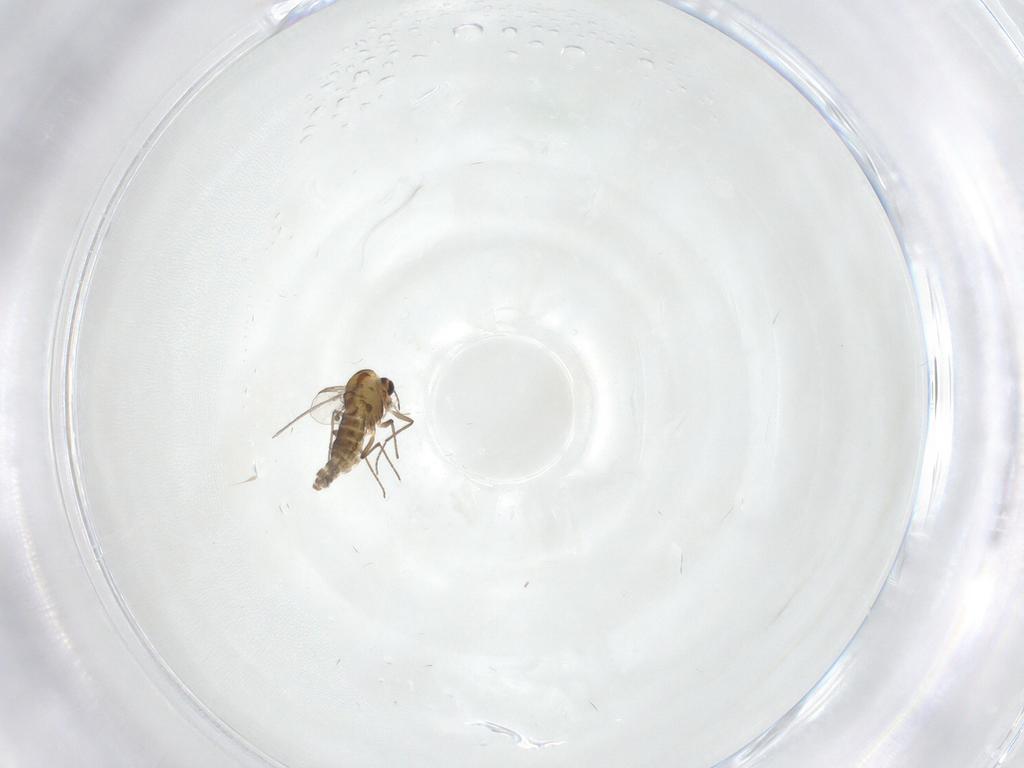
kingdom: Animalia
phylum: Arthropoda
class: Insecta
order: Diptera
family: Chironomidae
